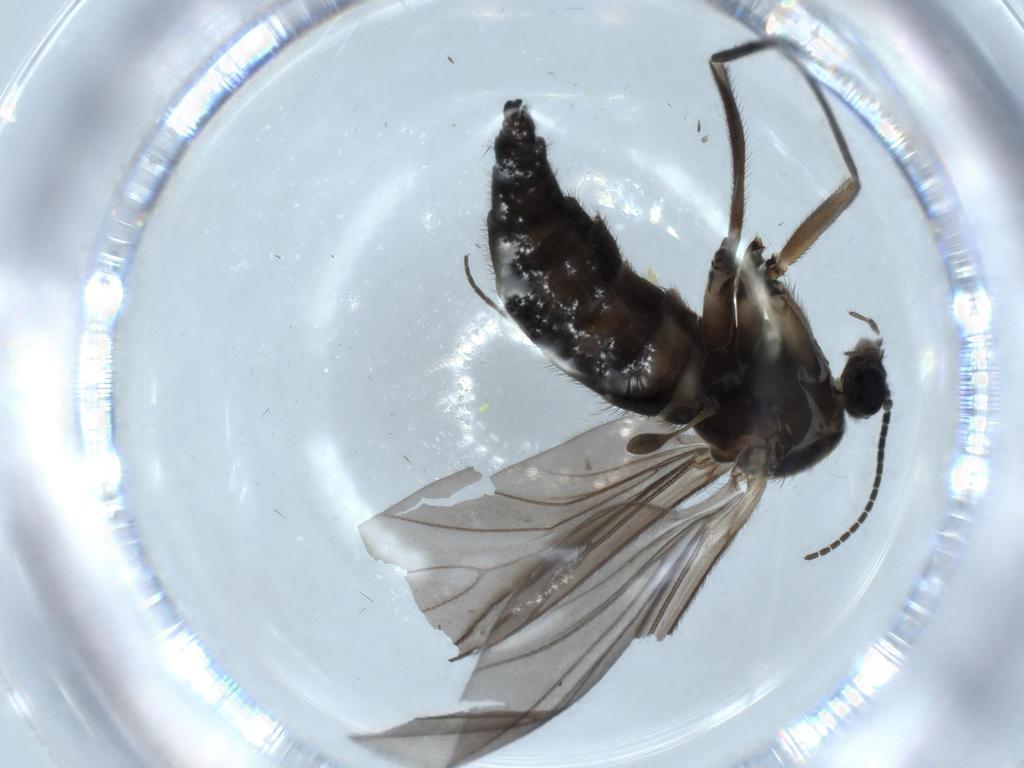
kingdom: Animalia
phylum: Arthropoda
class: Insecta
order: Diptera
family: Sciaridae
